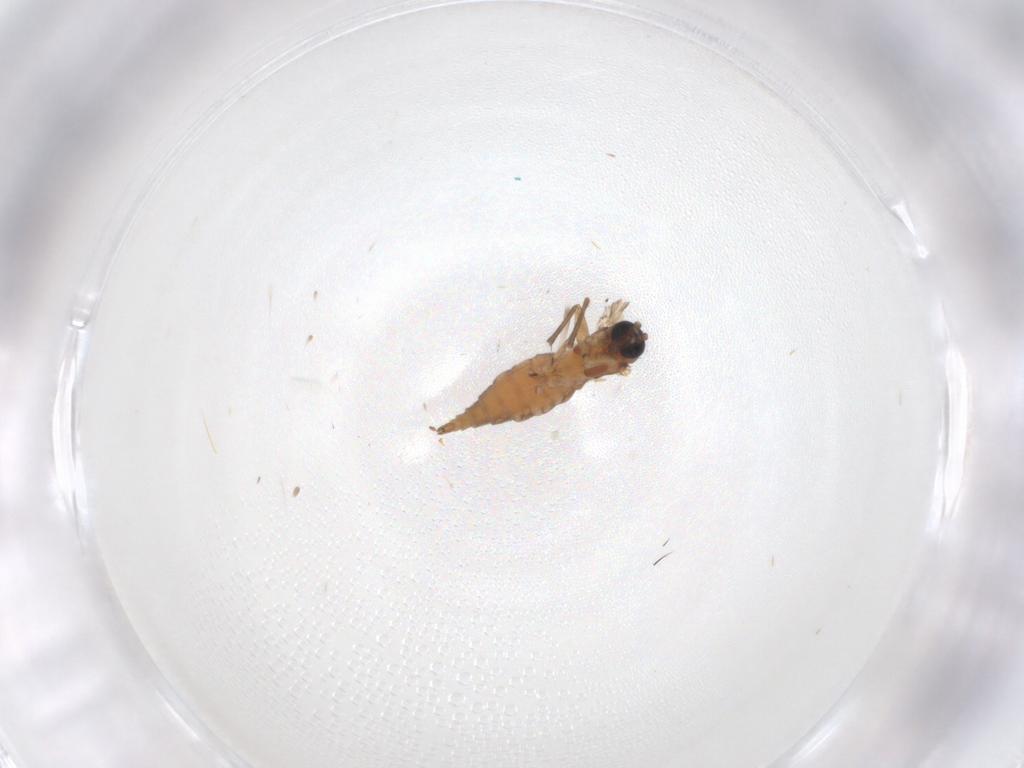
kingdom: Animalia
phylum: Arthropoda
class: Insecta
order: Diptera
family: Sciaridae
